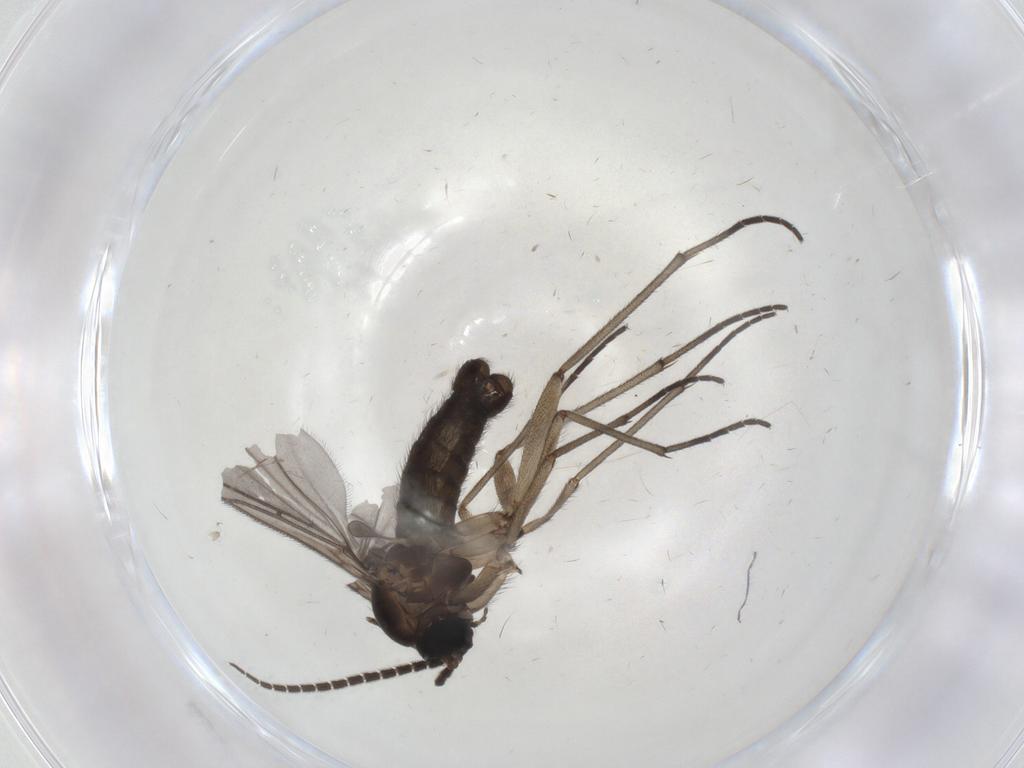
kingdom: Animalia
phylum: Arthropoda
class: Insecta
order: Diptera
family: Sciaridae
